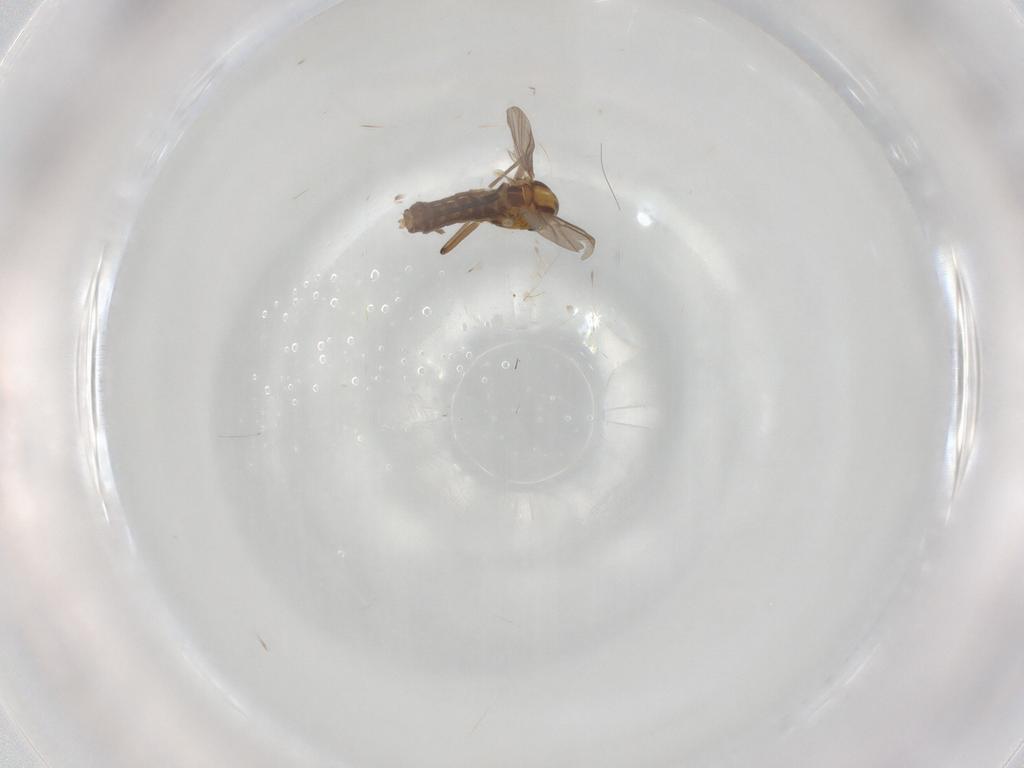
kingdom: Animalia
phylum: Arthropoda
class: Insecta
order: Diptera
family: Chironomidae
